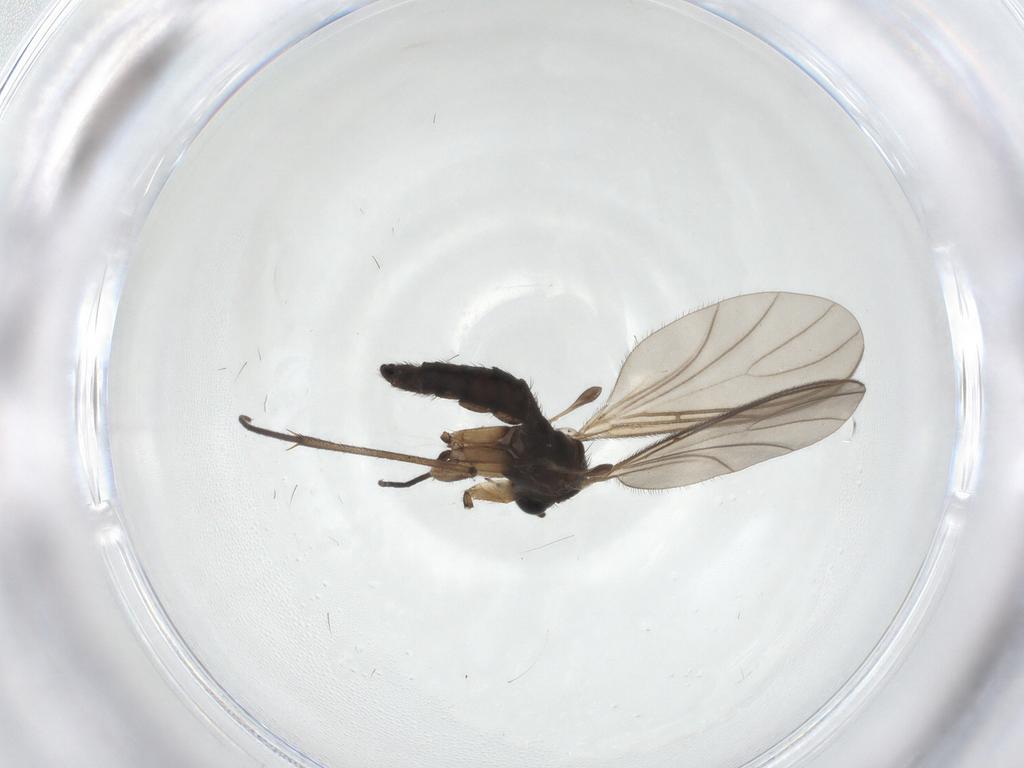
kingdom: Animalia
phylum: Arthropoda
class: Insecta
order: Diptera
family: Sciaridae
